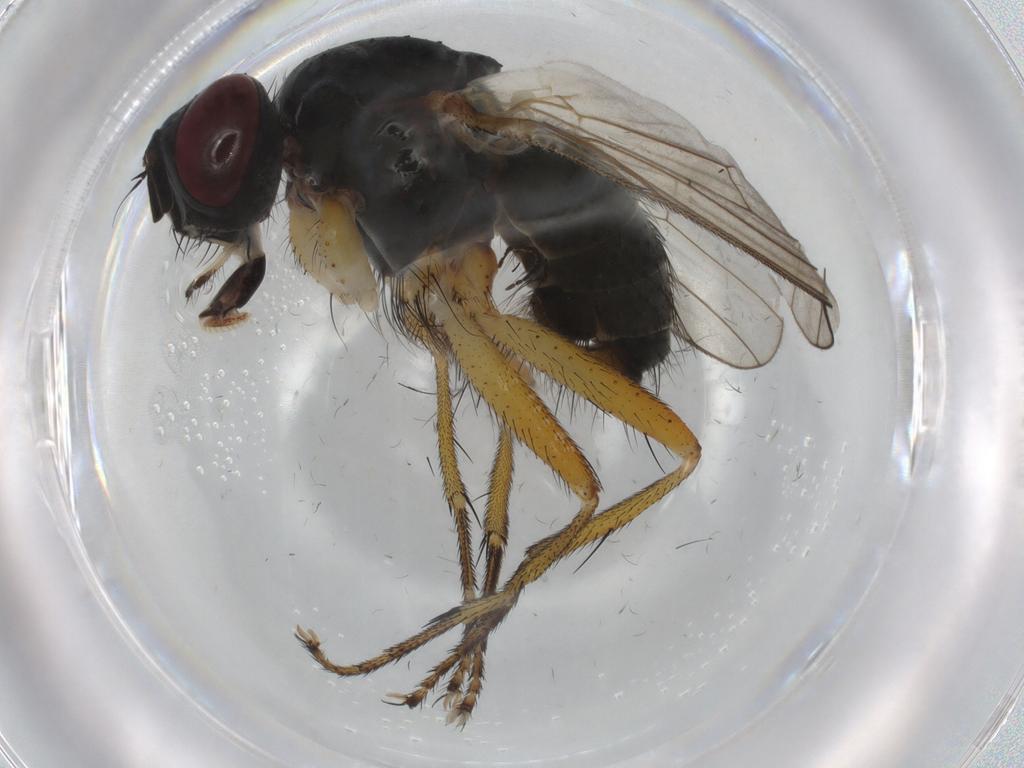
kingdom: Animalia
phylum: Arthropoda
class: Insecta
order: Diptera
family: Muscidae
